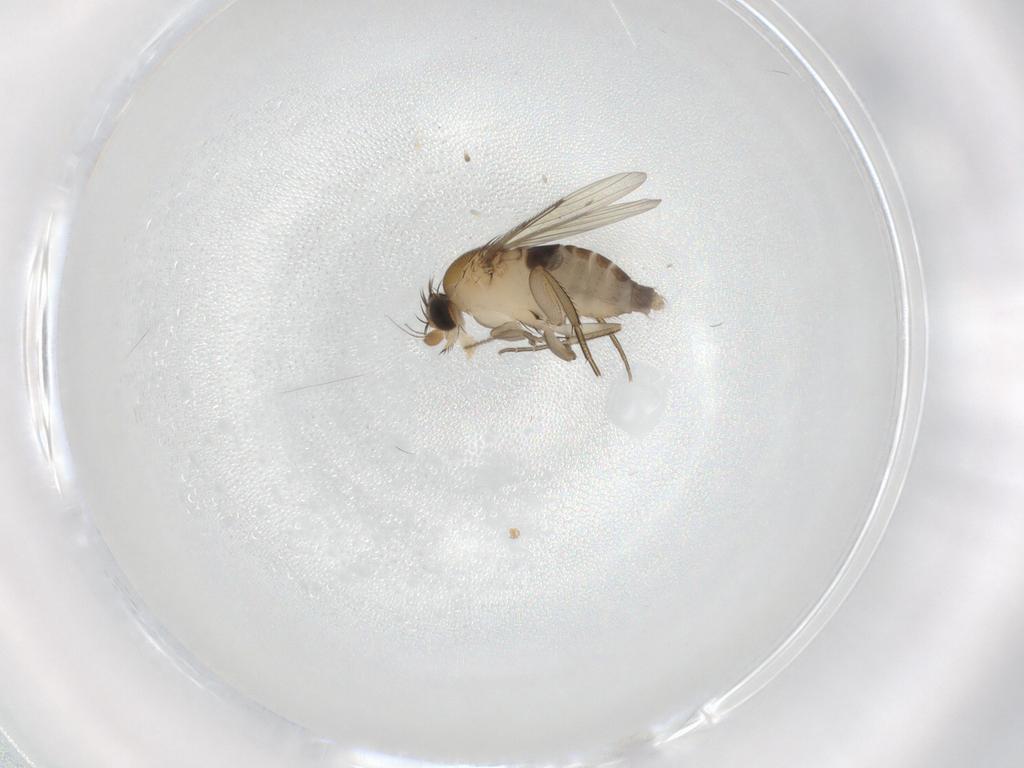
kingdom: Animalia
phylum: Arthropoda
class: Insecta
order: Diptera
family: Phoridae
